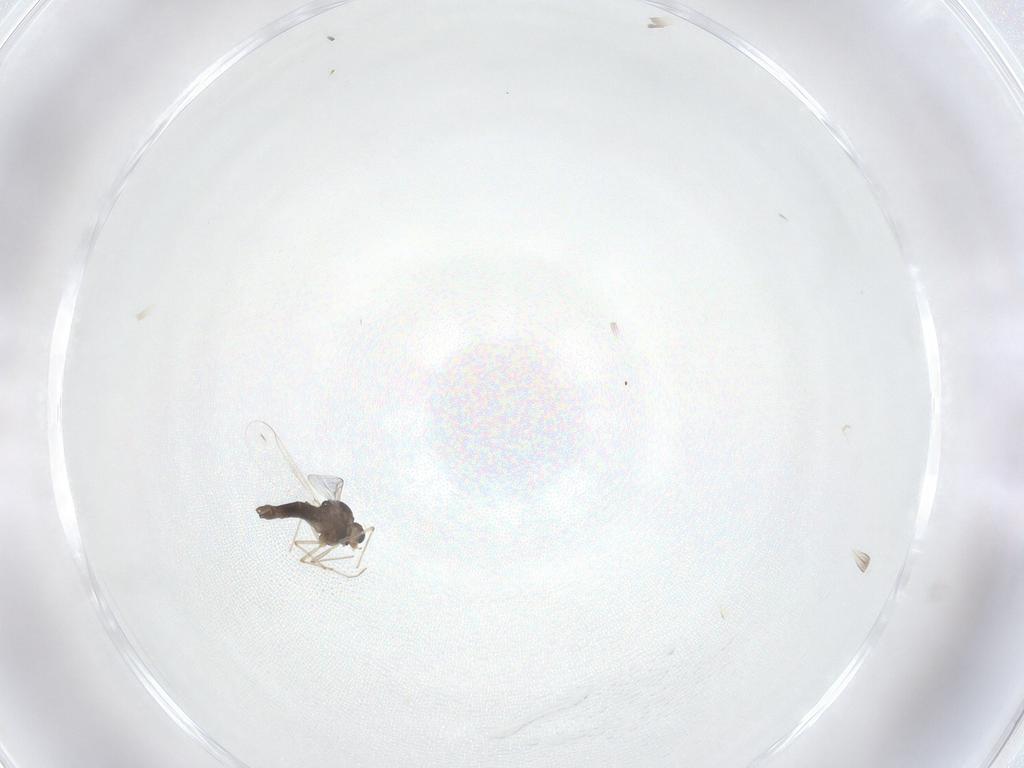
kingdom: Animalia
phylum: Arthropoda
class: Insecta
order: Diptera
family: Chironomidae
